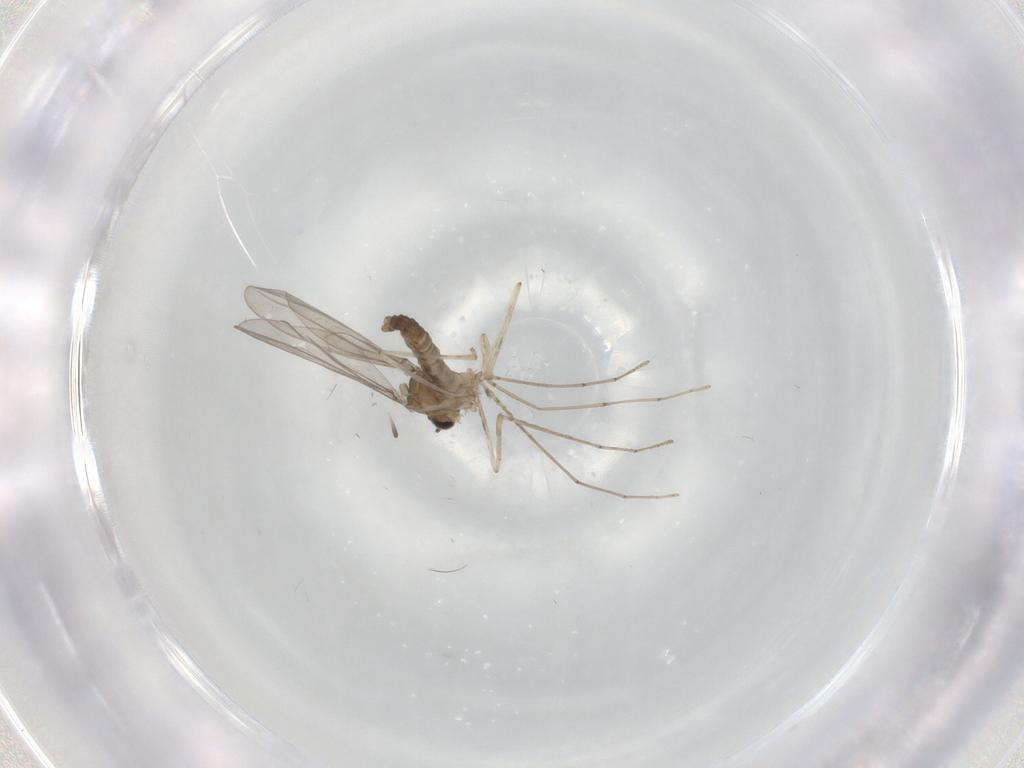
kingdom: Animalia
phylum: Arthropoda
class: Insecta
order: Diptera
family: Cecidomyiidae
